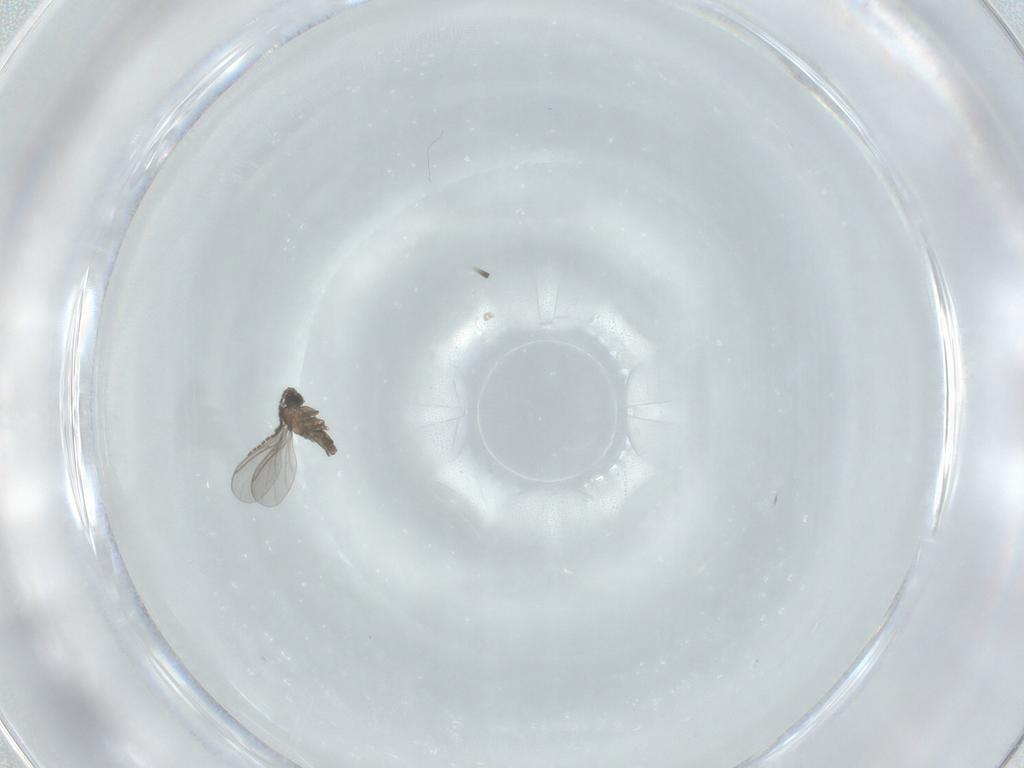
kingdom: Animalia
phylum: Arthropoda
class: Insecta
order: Diptera
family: Sciaridae
